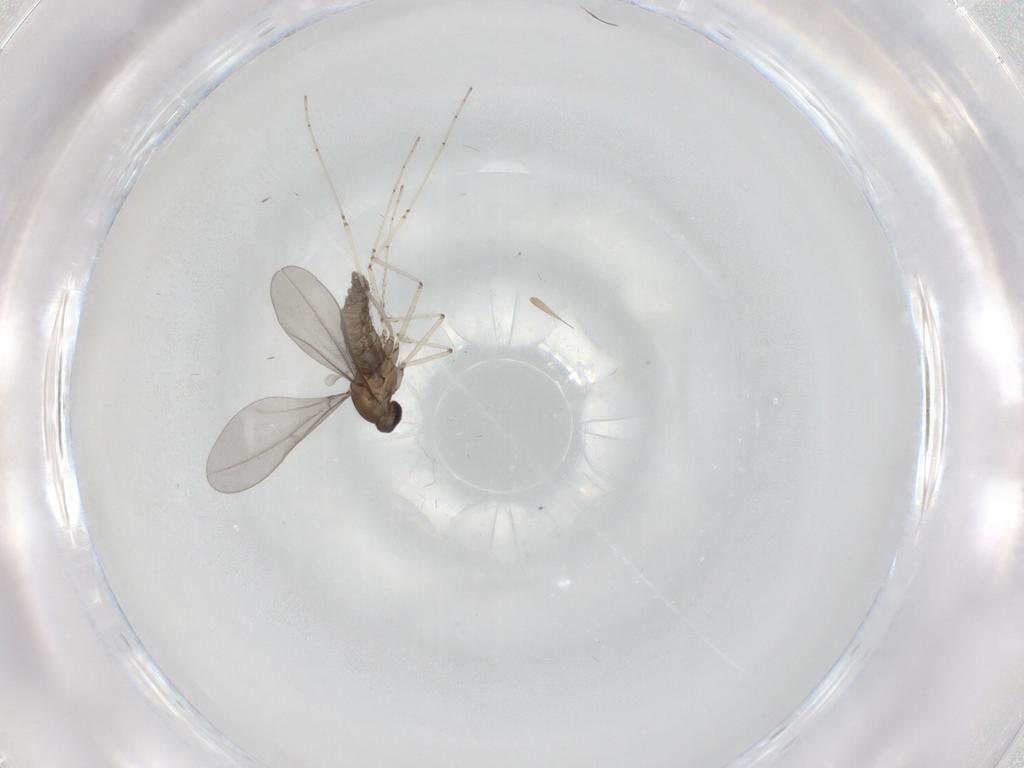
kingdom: Animalia
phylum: Arthropoda
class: Insecta
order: Diptera
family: Cecidomyiidae
